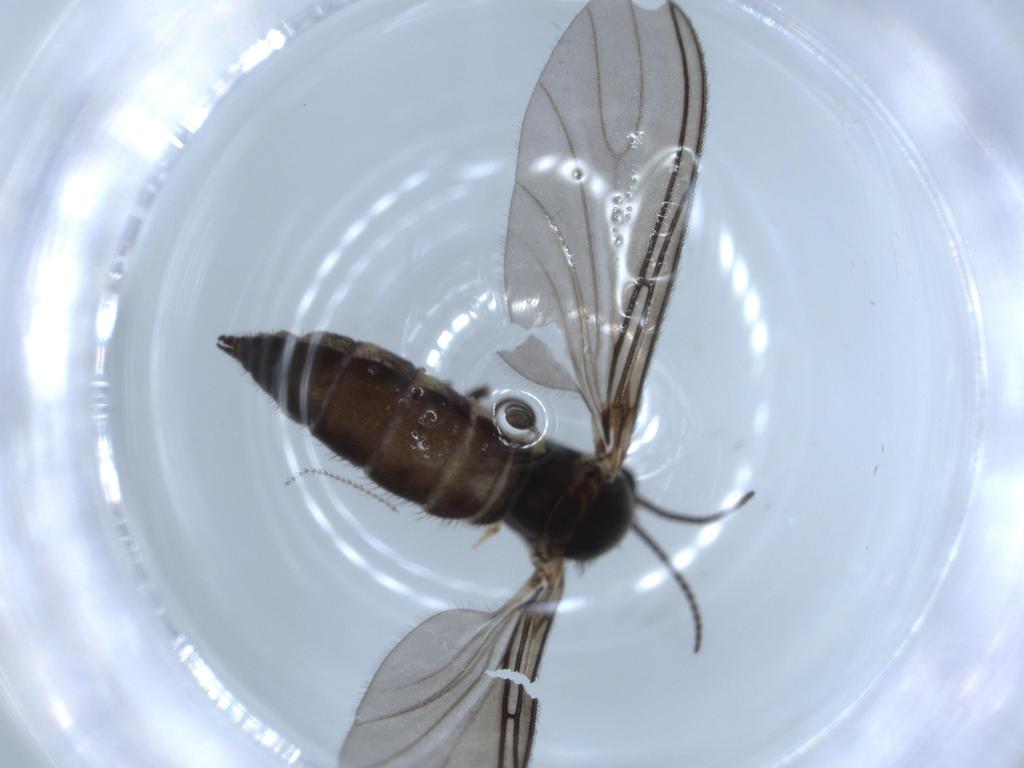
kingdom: Animalia
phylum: Arthropoda
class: Insecta
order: Diptera
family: Sciaridae
